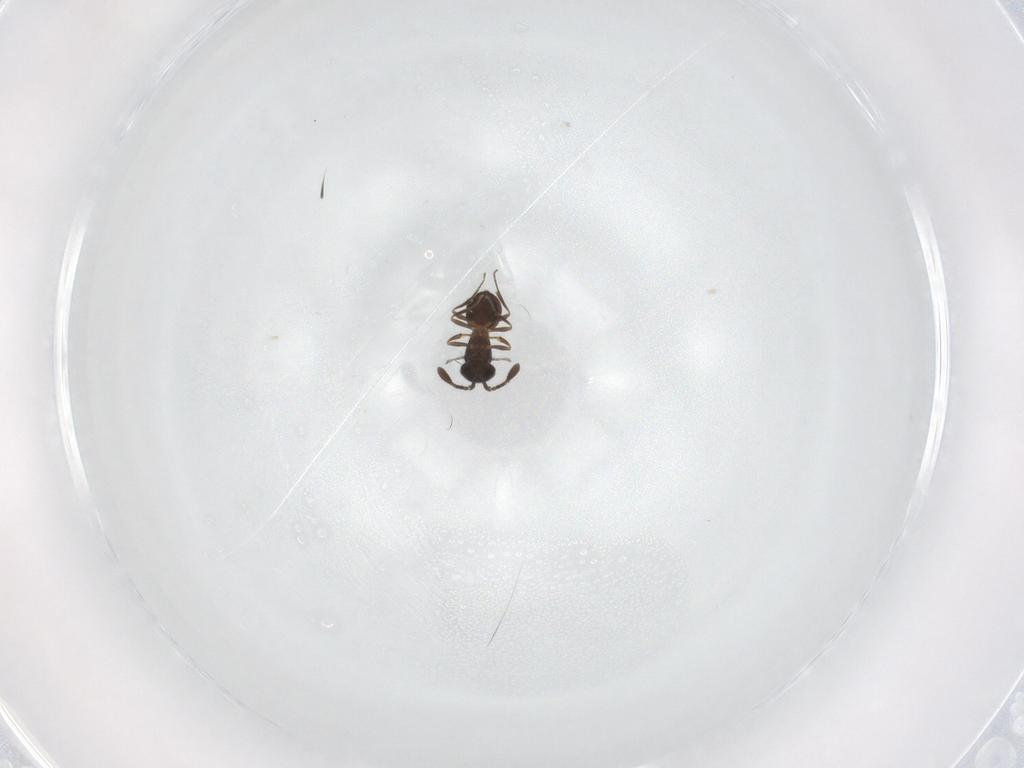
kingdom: Animalia
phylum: Arthropoda
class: Insecta
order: Hymenoptera
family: Scelionidae
